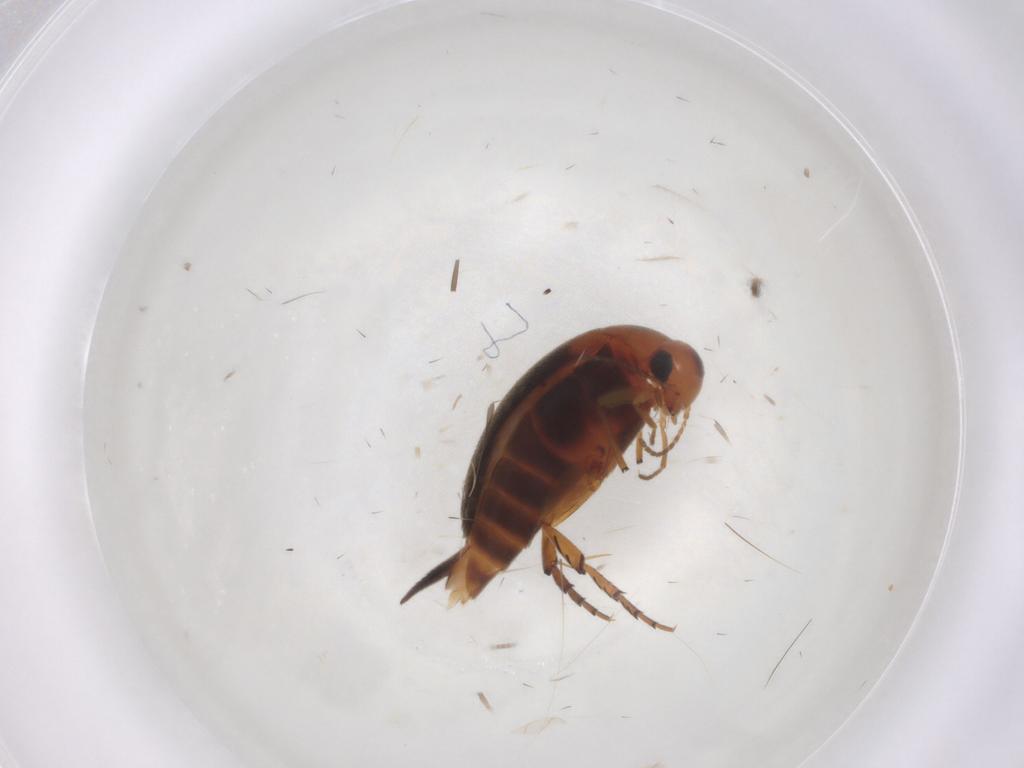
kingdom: Animalia
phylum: Arthropoda
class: Insecta
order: Coleoptera
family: Mordellidae
